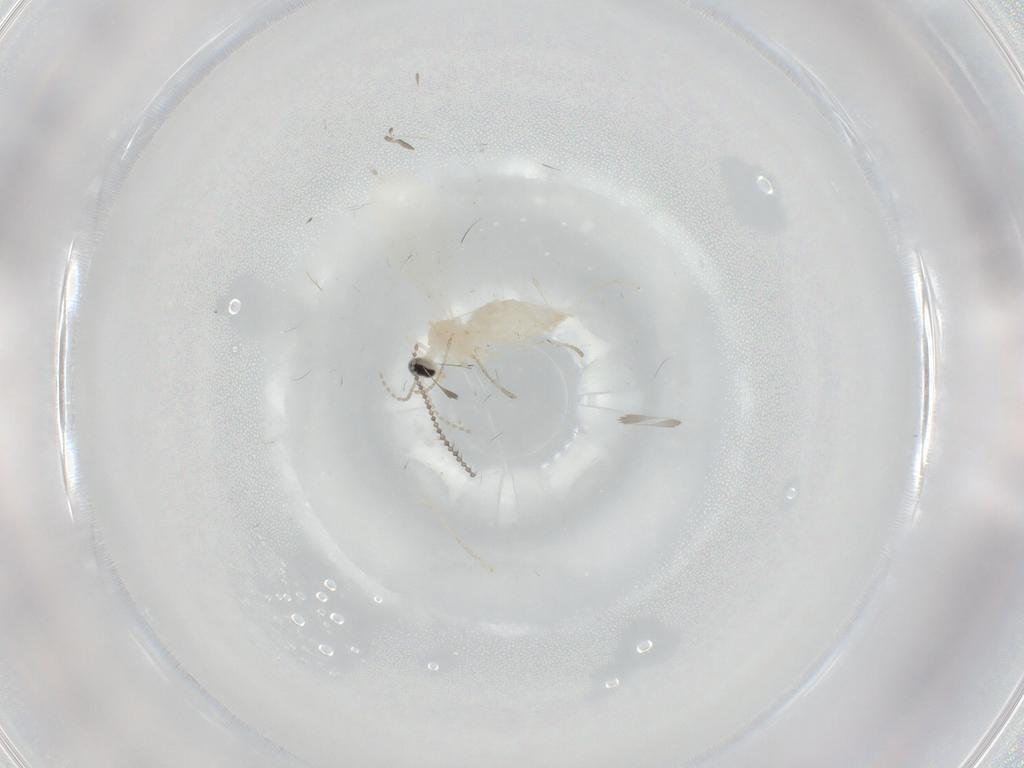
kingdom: Animalia
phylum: Arthropoda
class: Insecta
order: Diptera
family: Cecidomyiidae
